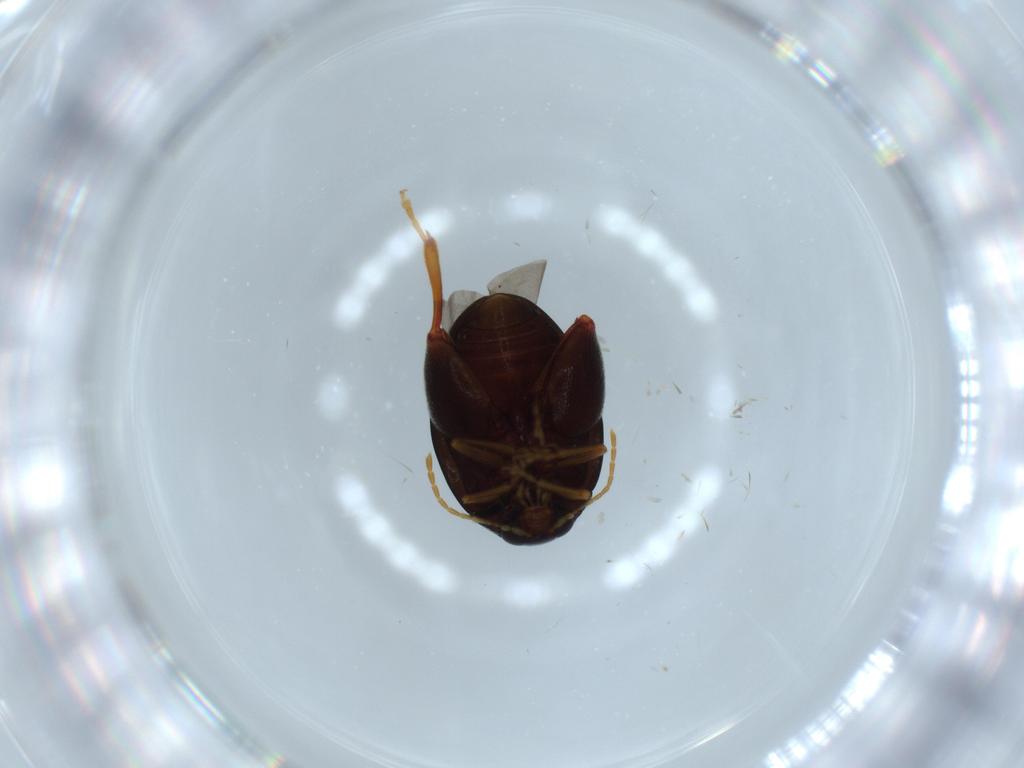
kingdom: Animalia
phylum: Arthropoda
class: Insecta
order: Coleoptera
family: Chrysomelidae
